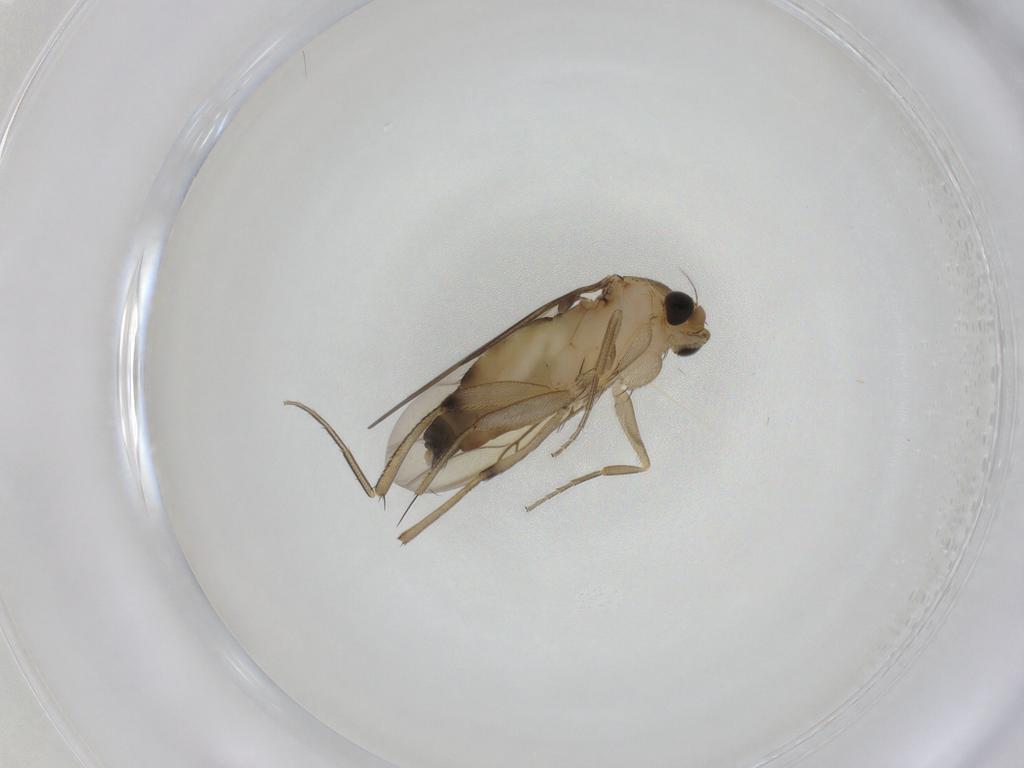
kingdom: Animalia
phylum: Arthropoda
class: Insecta
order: Diptera
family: Phoridae
